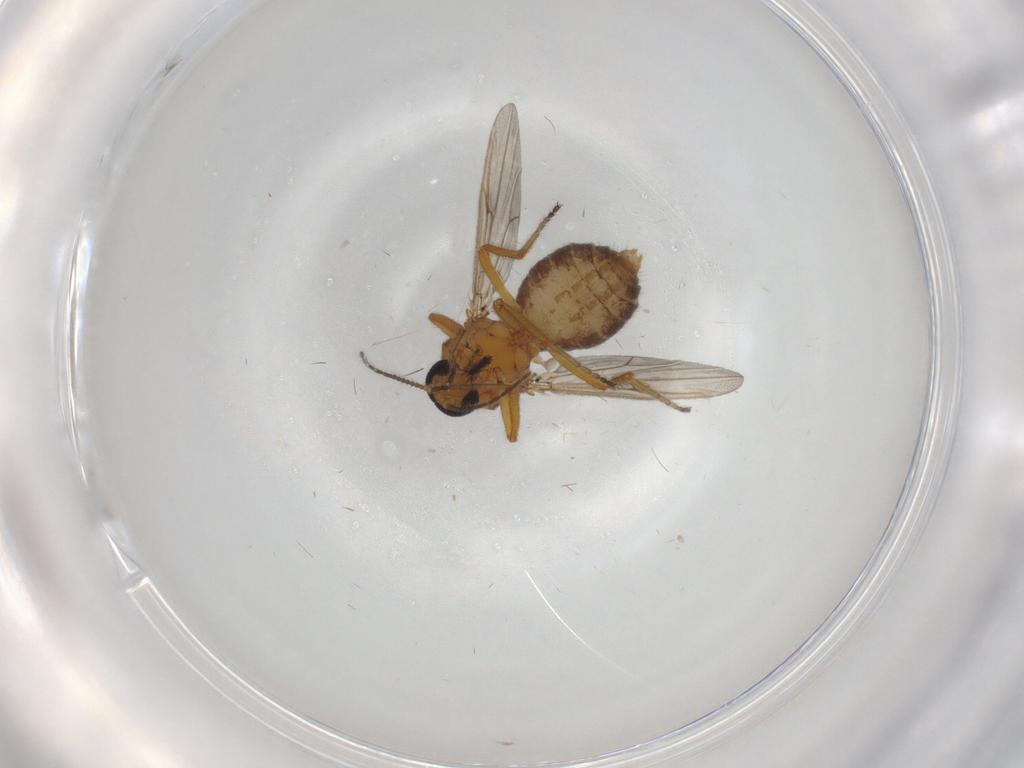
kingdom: Animalia
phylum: Arthropoda
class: Insecta
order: Diptera
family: Ceratopogonidae
